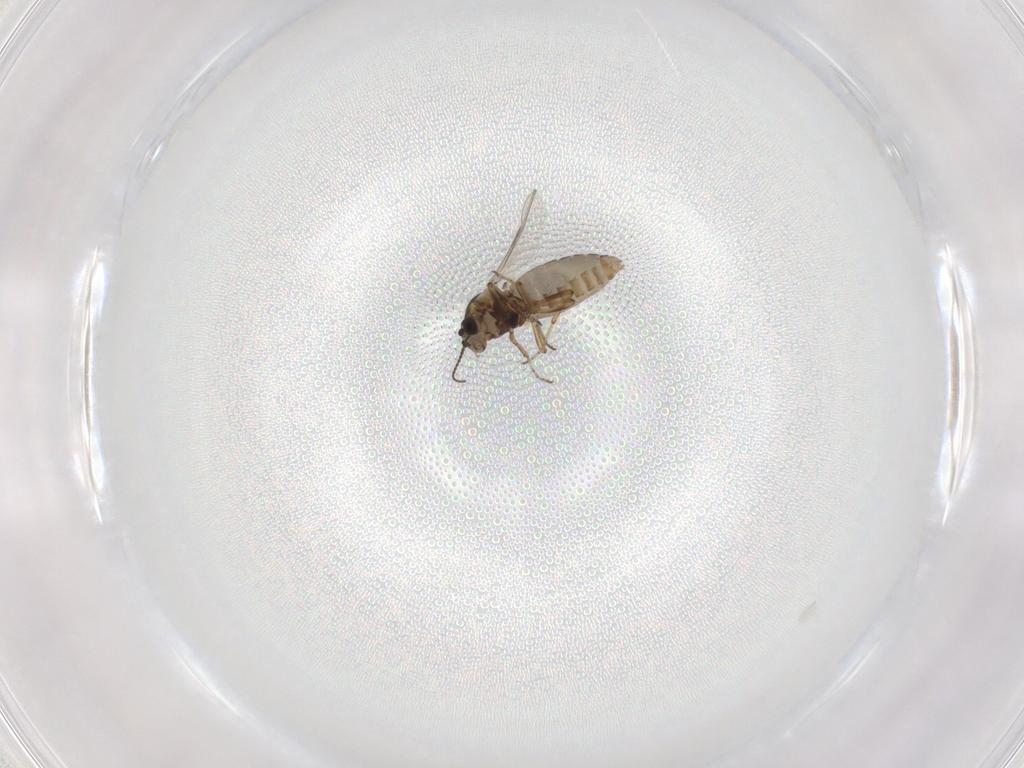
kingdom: Animalia
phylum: Arthropoda
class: Insecta
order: Diptera
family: Ceratopogonidae
